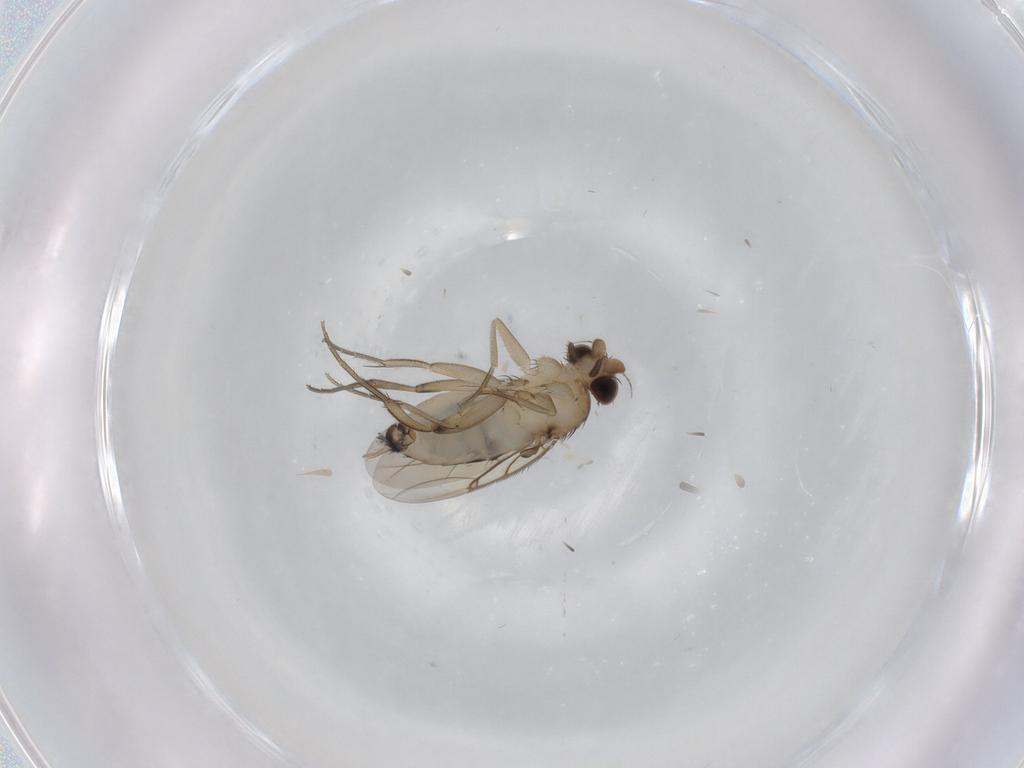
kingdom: Animalia
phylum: Arthropoda
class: Insecta
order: Diptera
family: Phoridae
